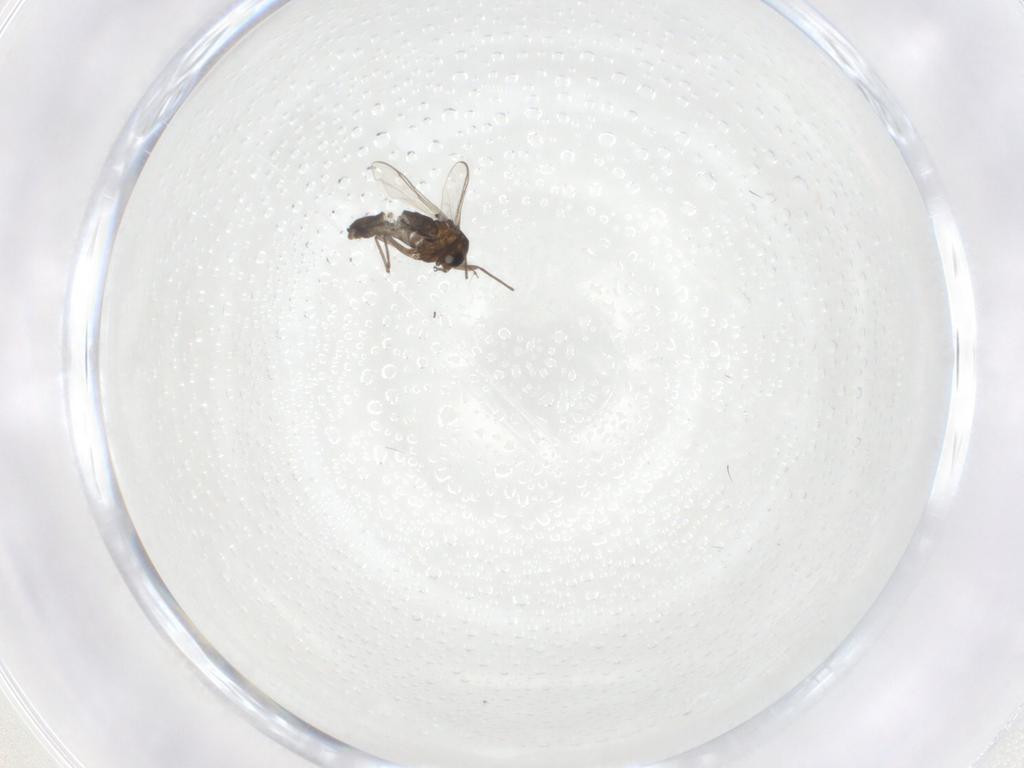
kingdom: Animalia
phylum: Arthropoda
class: Insecta
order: Diptera
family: Chironomidae
